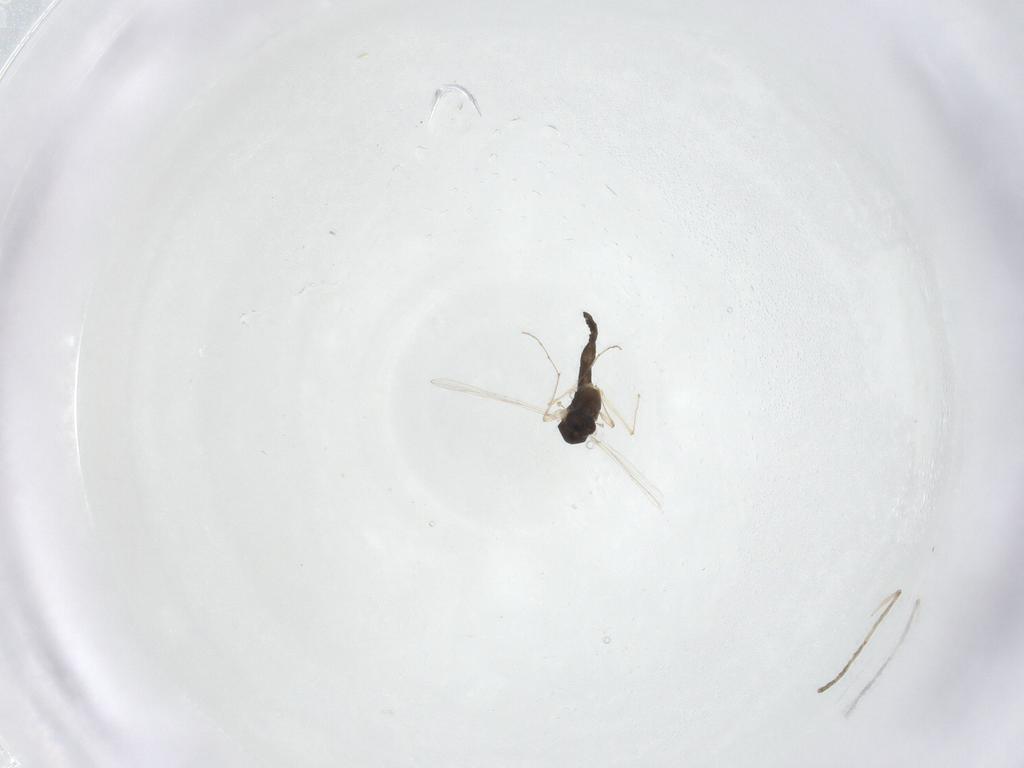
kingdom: Animalia
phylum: Arthropoda
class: Insecta
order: Diptera
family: Chironomidae
